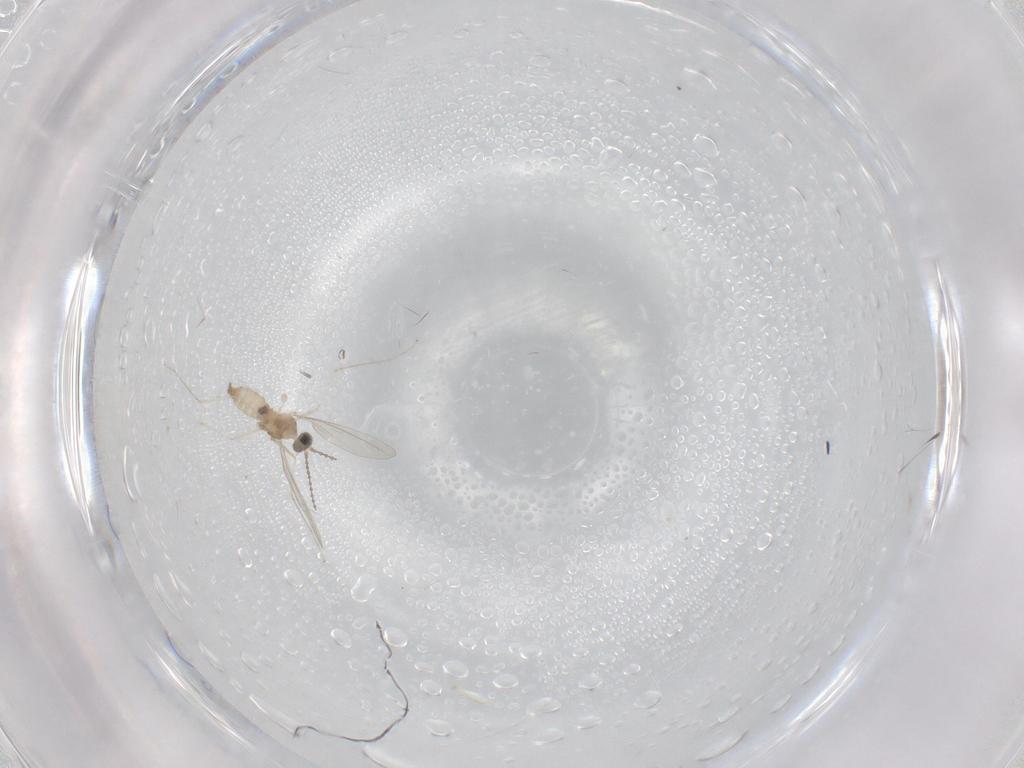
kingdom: Animalia
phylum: Arthropoda
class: Insecta
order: Diptera
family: Cecidomyiidae
